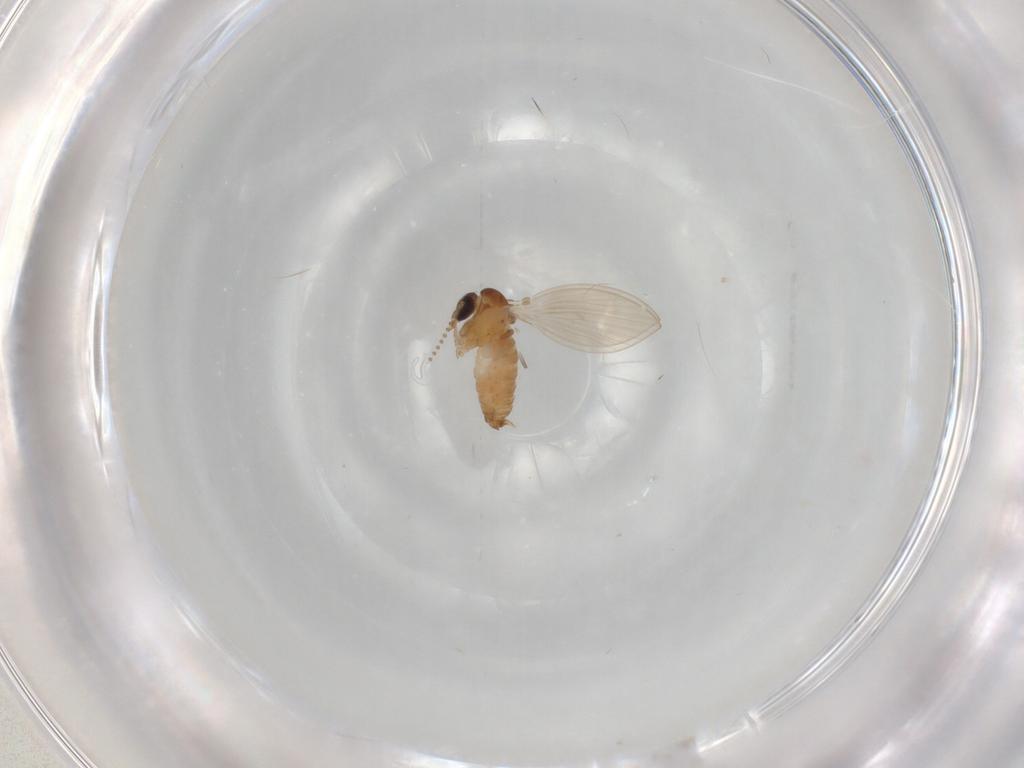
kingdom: Animalia
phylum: Arthropoda
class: Insecta
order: Diptera
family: Psychodidae
